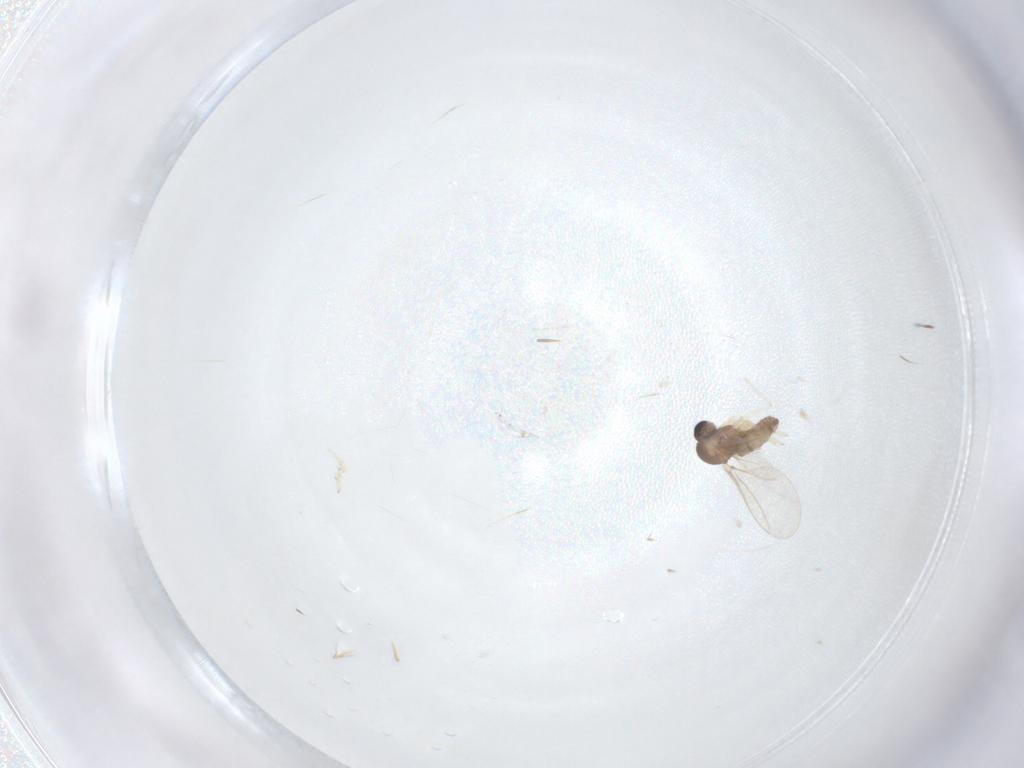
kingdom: Animalia
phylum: Arthropoda
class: Insecta
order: Diptera
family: Cecidomyiidae
